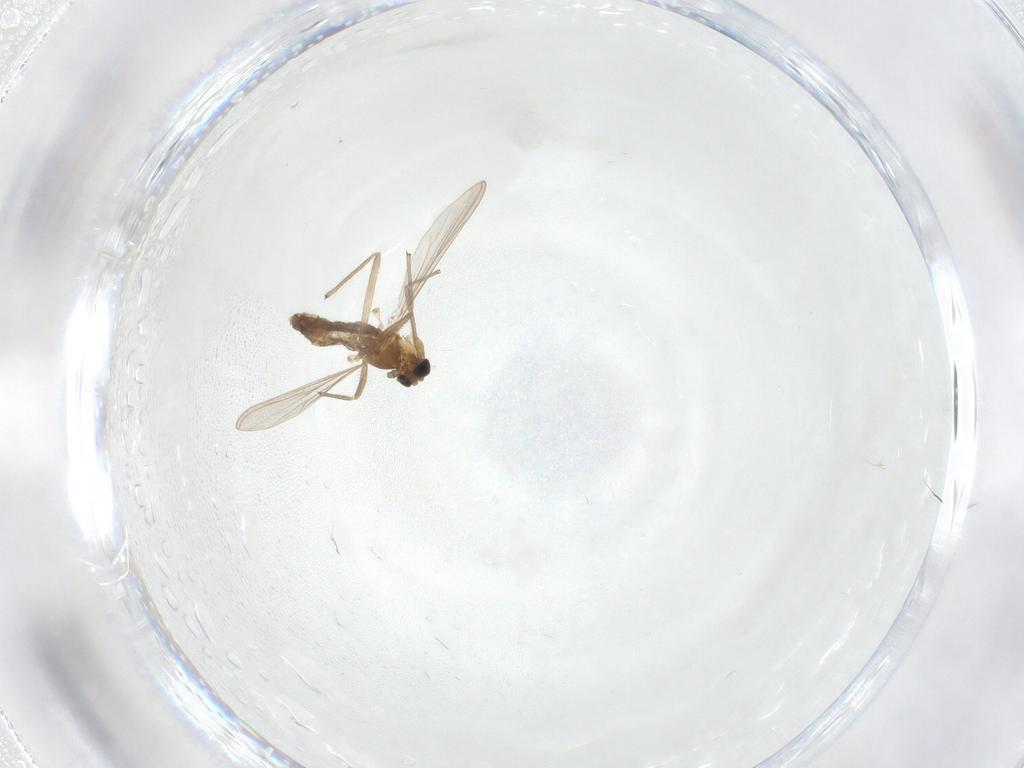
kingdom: Animalia
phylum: Arthropoda
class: Insecta
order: Diptera
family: Chironomidae
